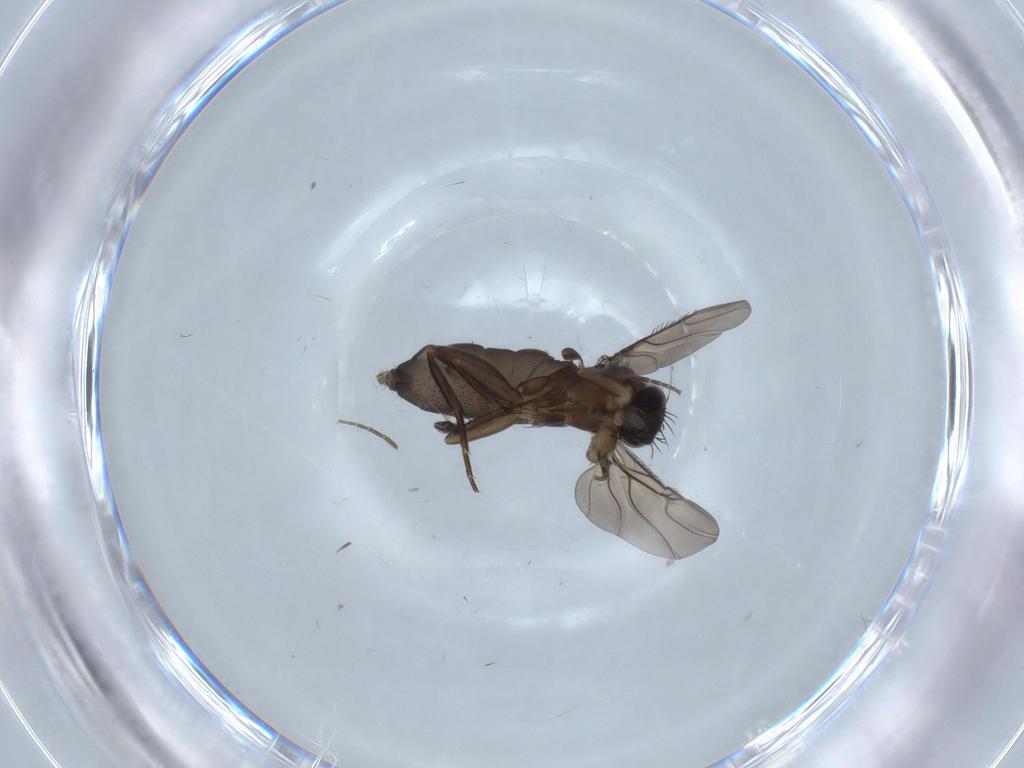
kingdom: Animalia
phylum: Arthropoda
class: Insecta
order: Diptera
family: Phoridae
